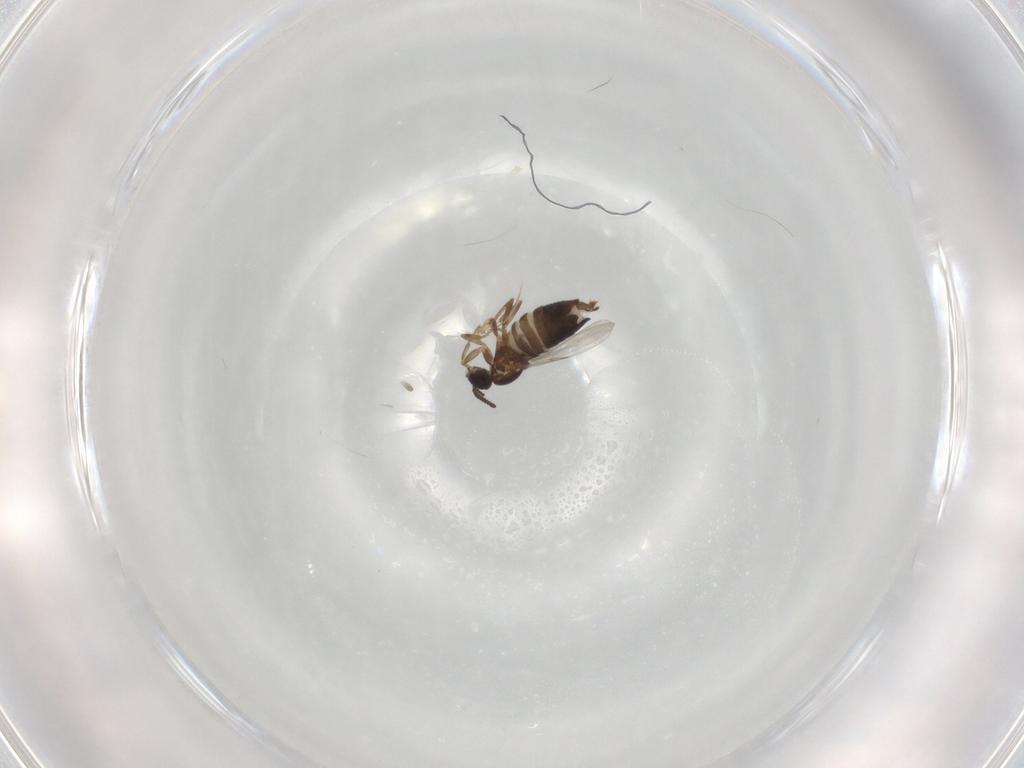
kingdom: Animalia
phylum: Arthropoda
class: Insecta
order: Diptera
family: Scatopsidae
